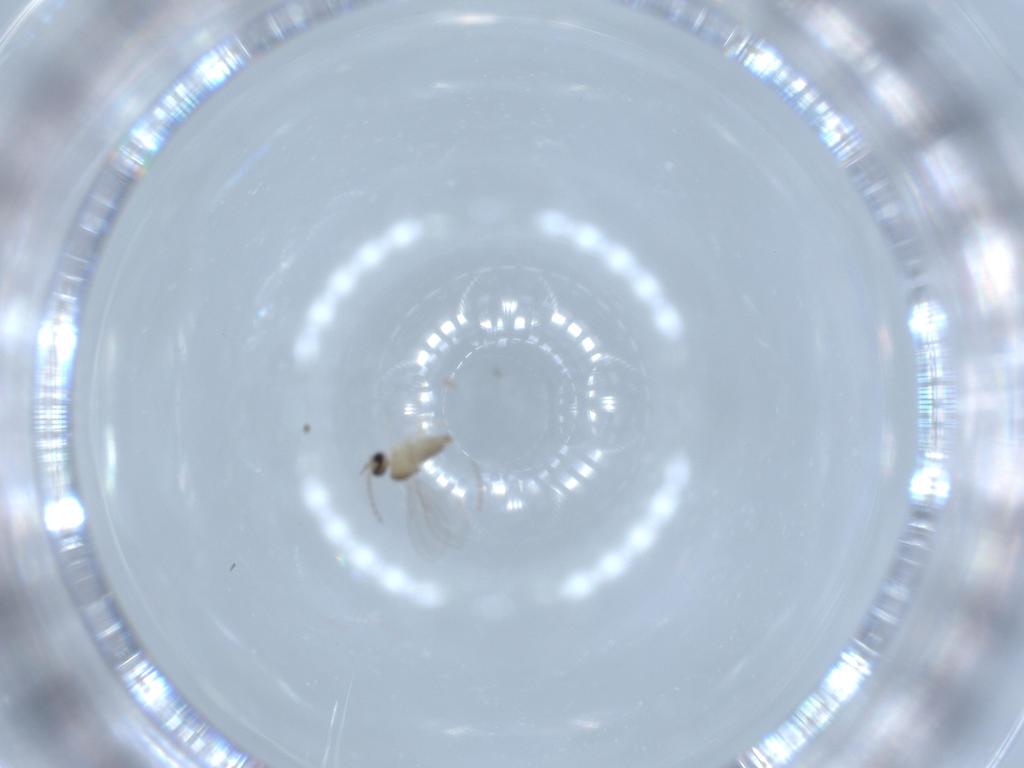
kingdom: Animalia
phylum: Arthropoda
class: Insecta
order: Diptera
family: Cecidomyiidae
